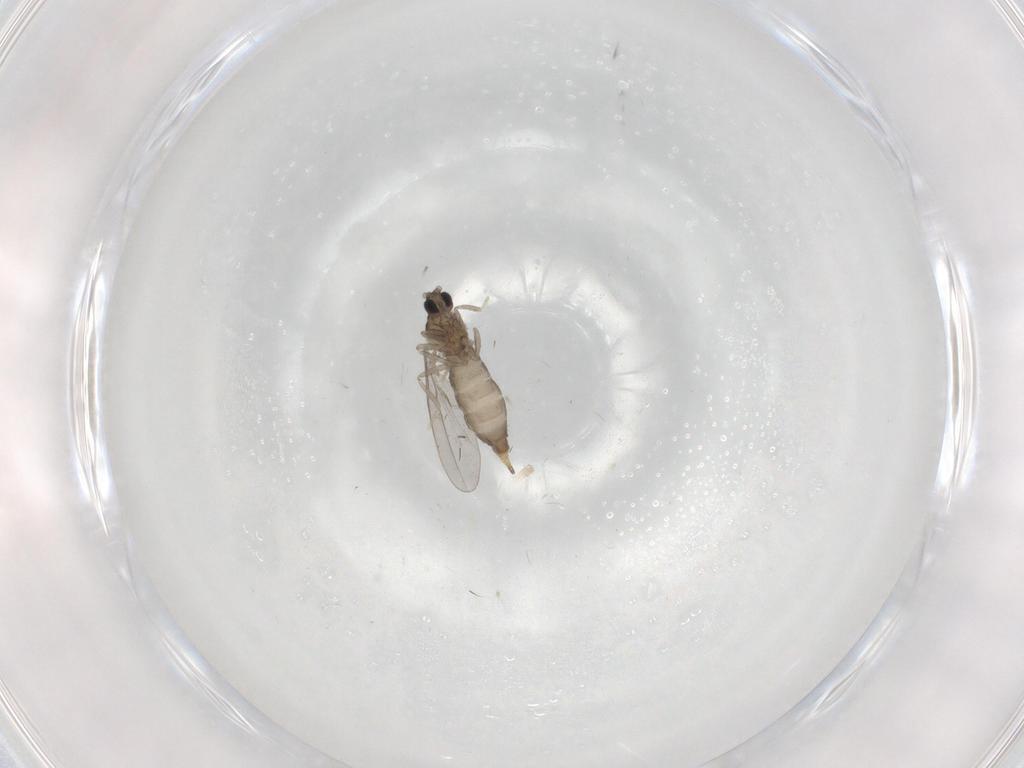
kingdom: Animalia
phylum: Arthropoda
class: Insecta
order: Diptera
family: Cecidomyiidae
